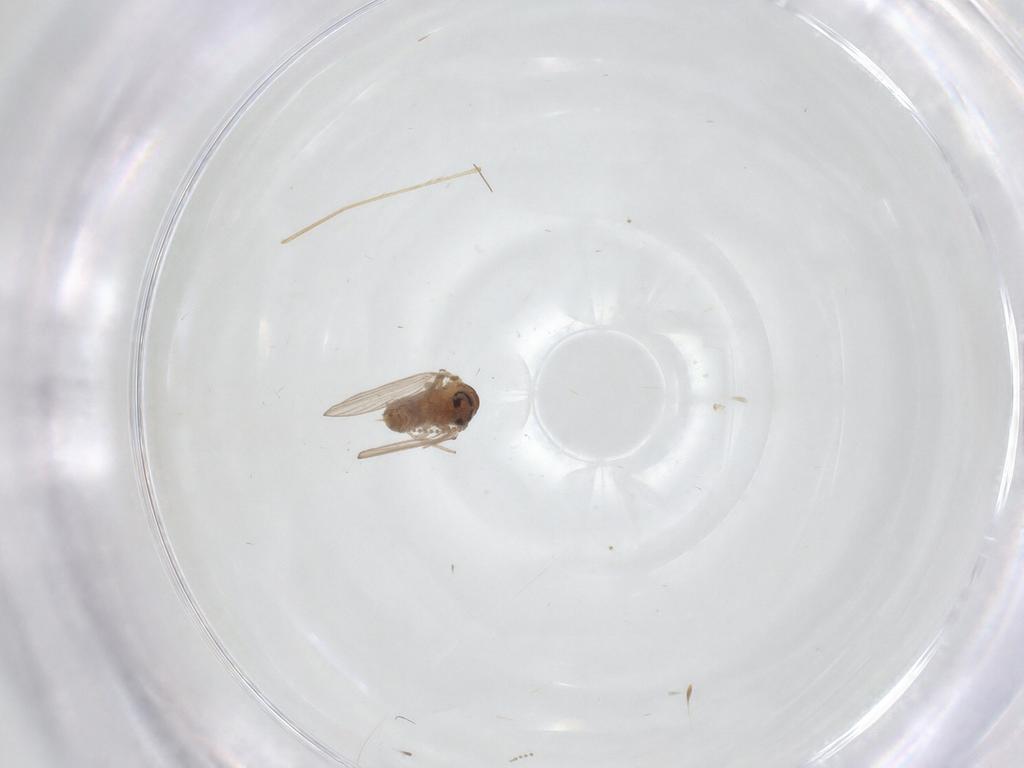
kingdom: Animalia
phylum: Arthropoda
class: Insecta
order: Diptera
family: Psychodidae
